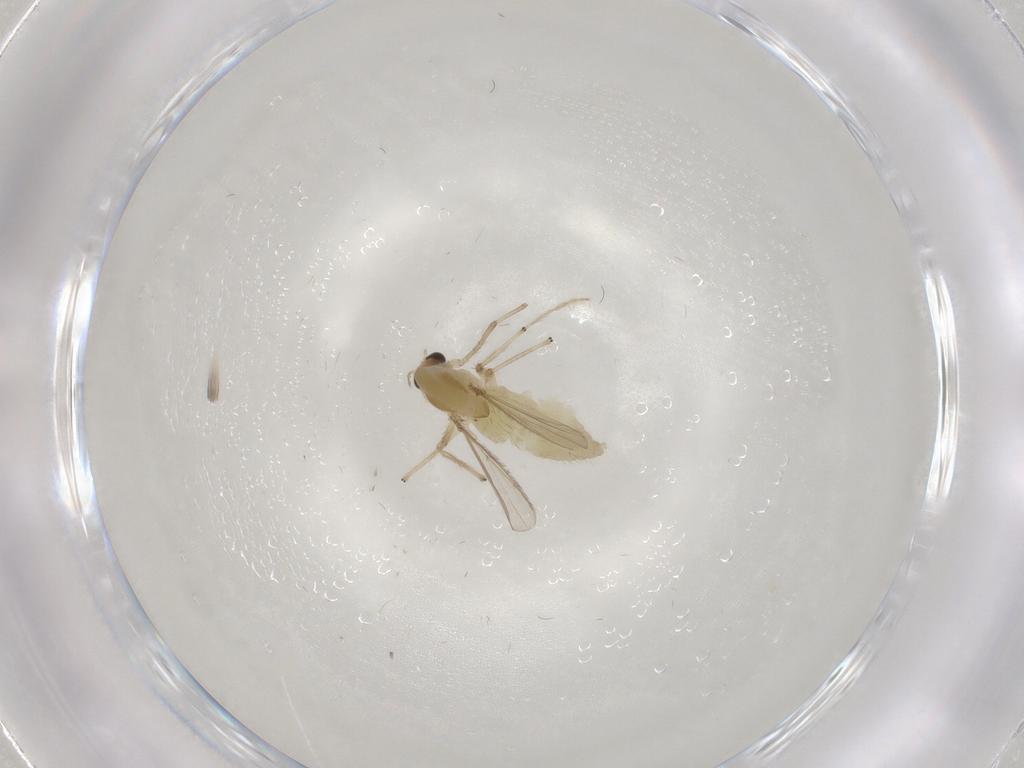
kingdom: Animalia
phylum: Arthropoda
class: Insecta
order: Diptera
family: Chironomidae
